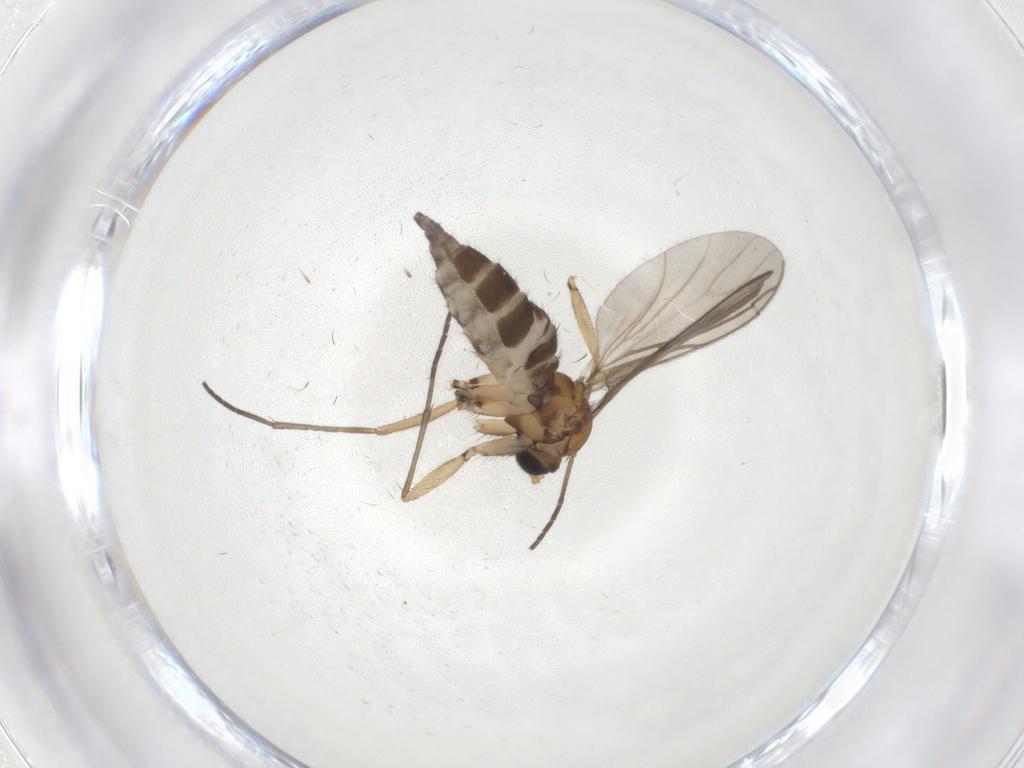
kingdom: Animalia
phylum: Arthropoda
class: Insecta
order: Diptera
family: Sciaridae
